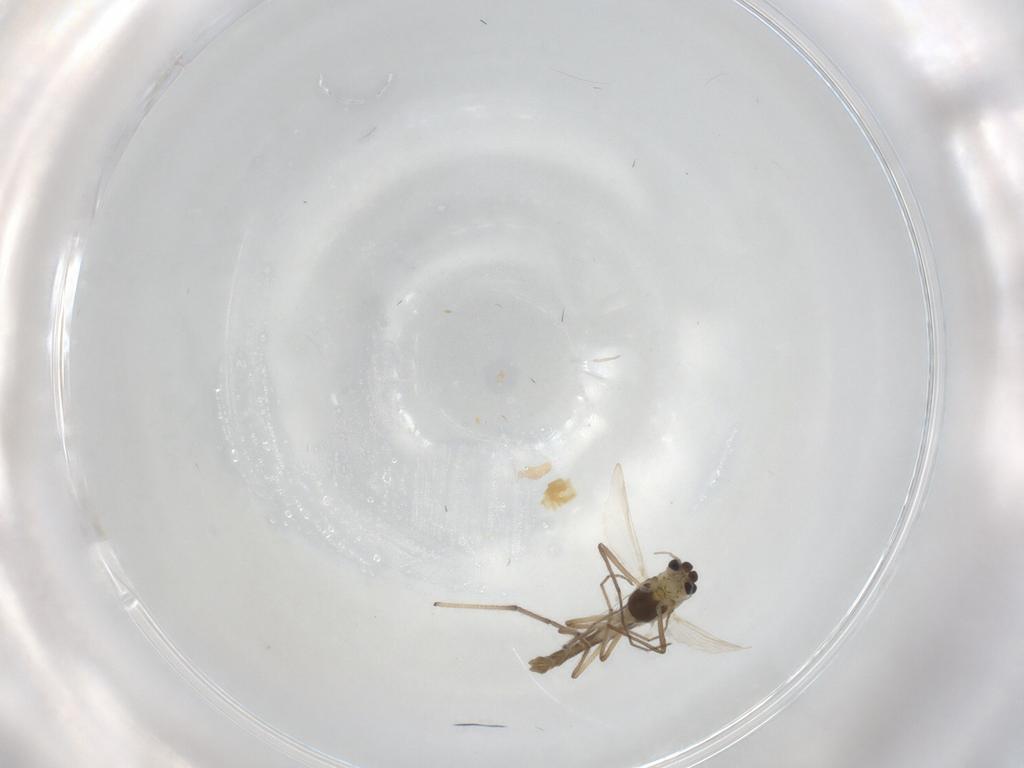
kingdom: Animalia
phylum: Arthropoda
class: Insecta
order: Diptera
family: Chironomidae
